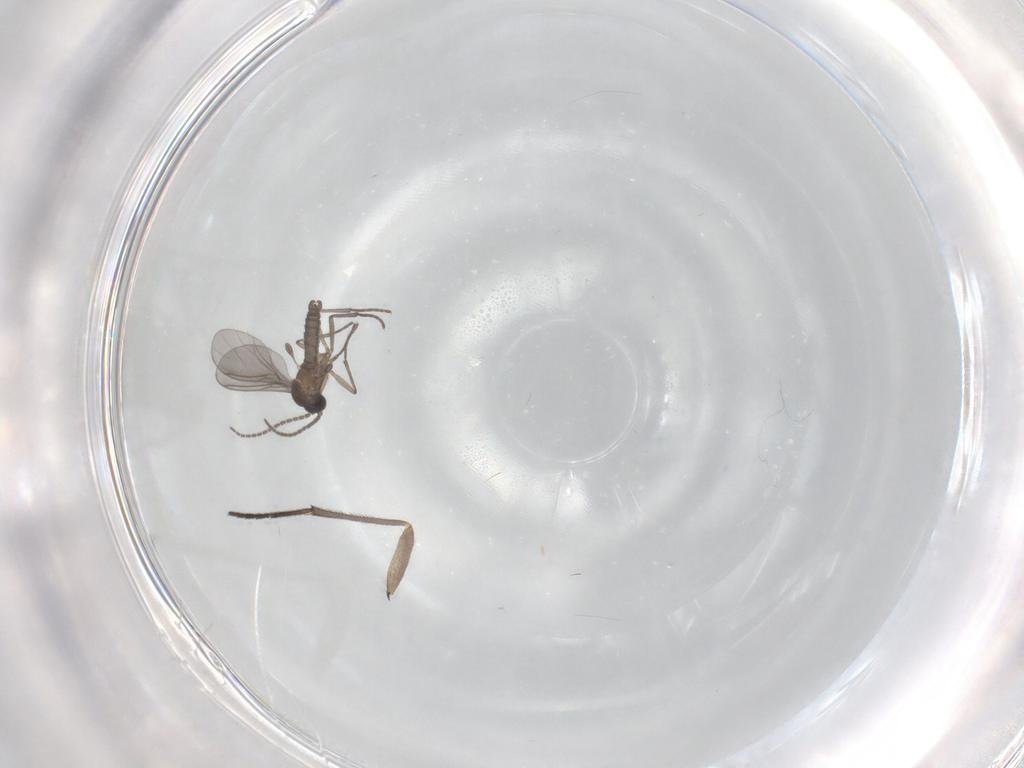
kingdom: Animalia
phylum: Arthropoda
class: Insecta
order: Diptera
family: Sciaridae
